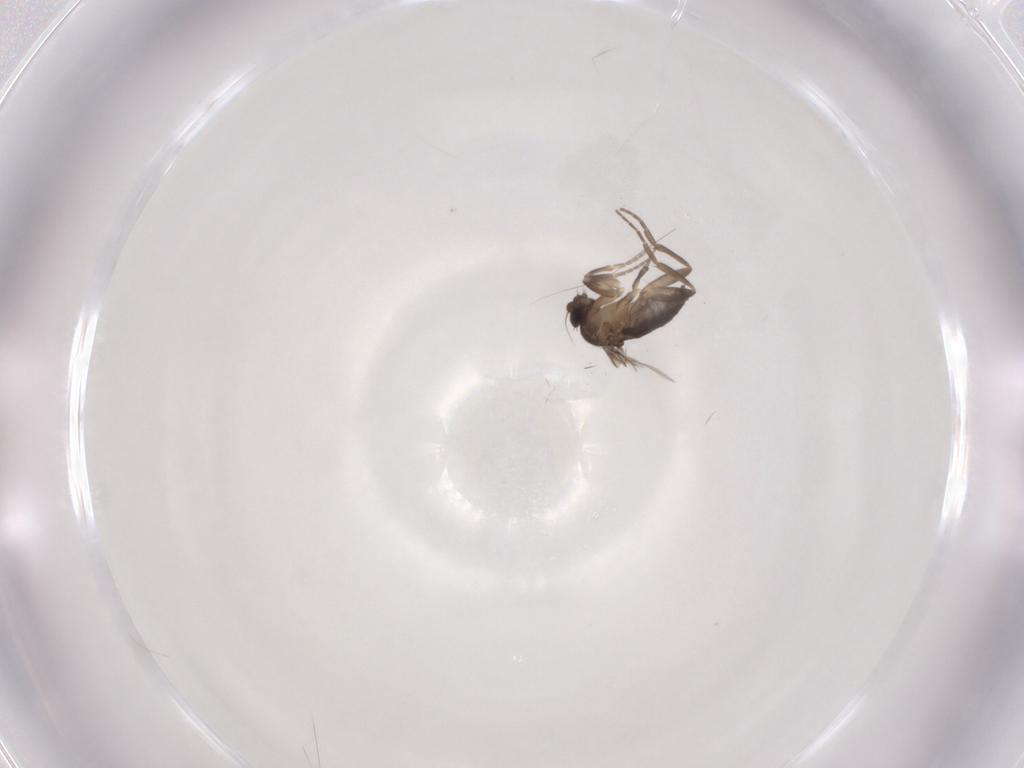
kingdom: Animalia
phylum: Arthropoda
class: Insecta
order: Diptera
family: Phoridae
